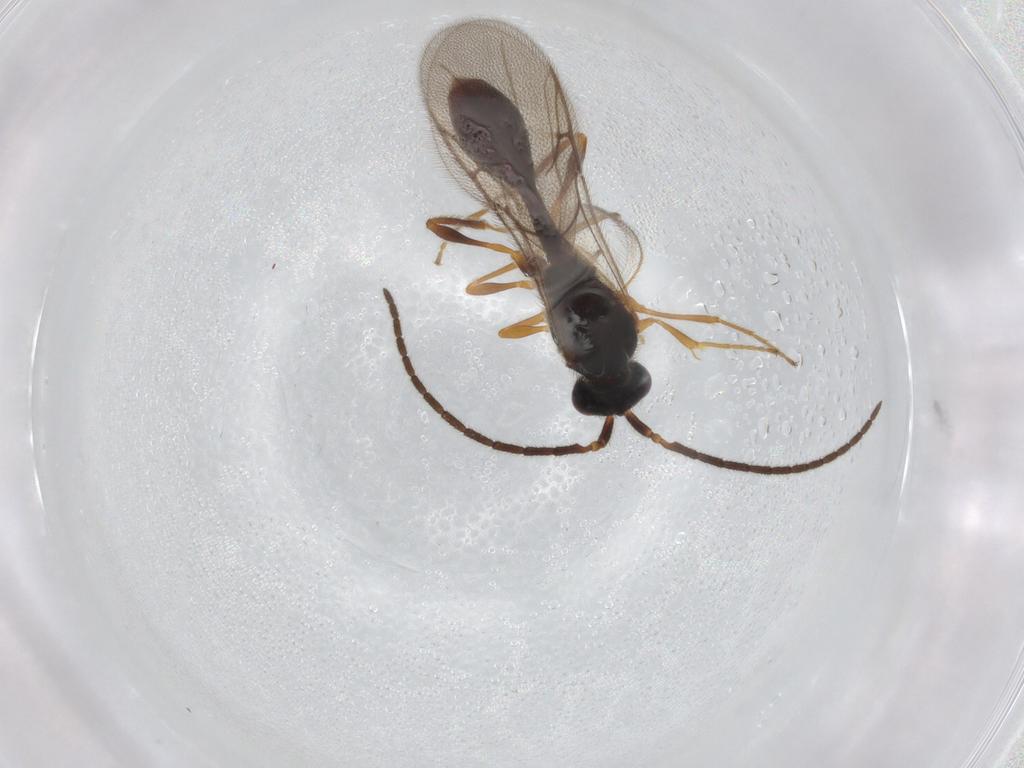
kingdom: Animalia
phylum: Arthropoda
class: Insecta
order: Hymenoptera
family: Diapriidae
